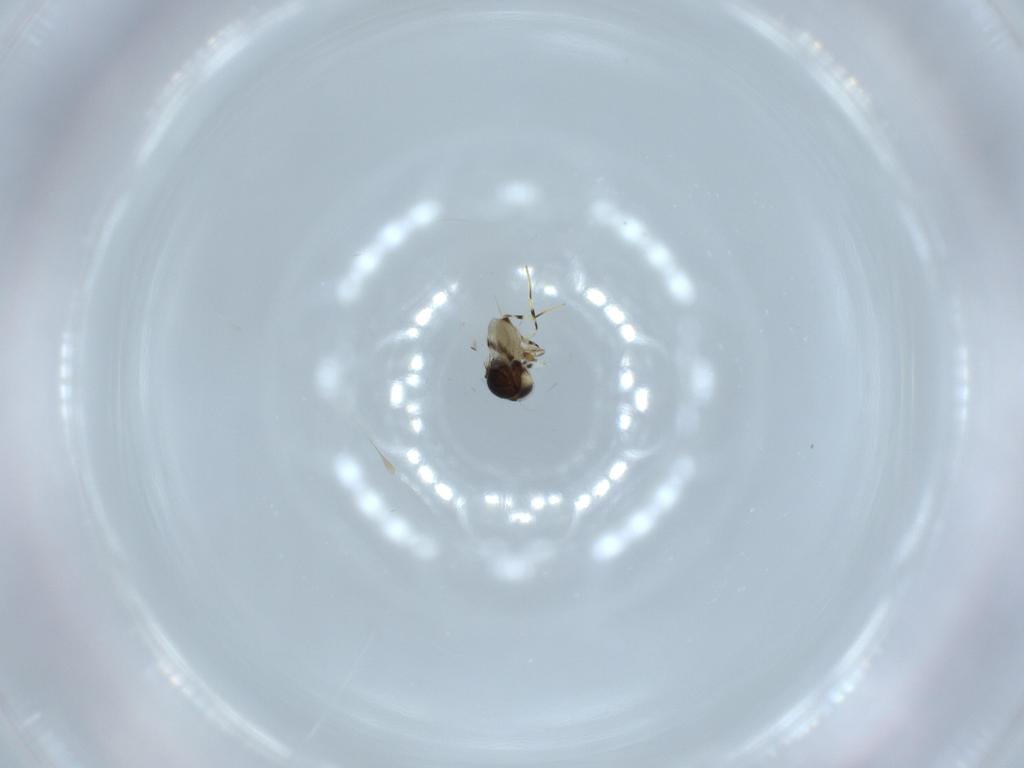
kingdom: Animalia
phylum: Arthropoda
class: Insecta
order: Hymenoptera
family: Scelionidae
